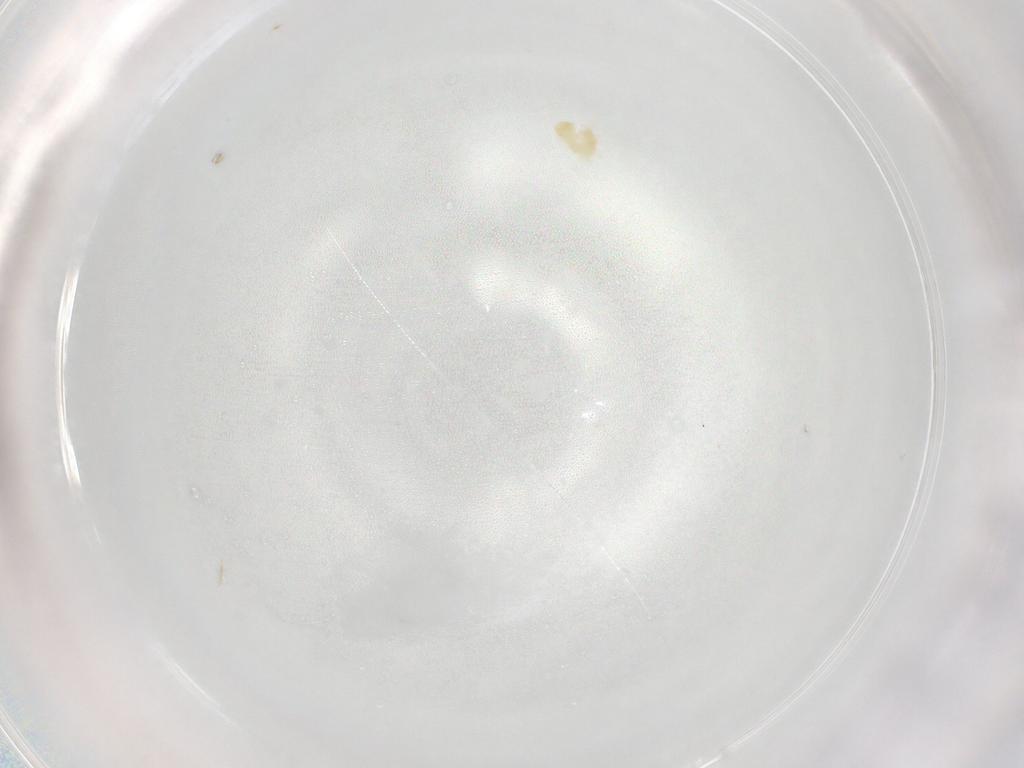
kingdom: Animalia
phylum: Arthropoda
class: Arachnida
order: Trombidiformes
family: Eupodidae
